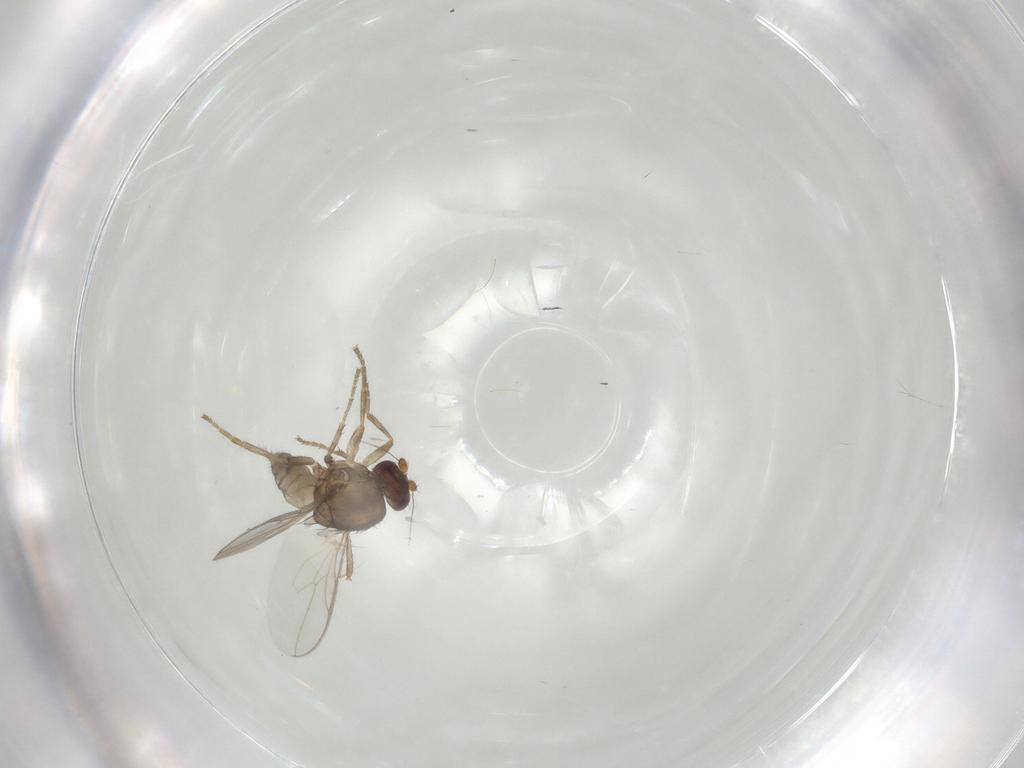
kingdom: Animalia
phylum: Arthropoda
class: Insecta
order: Diptera
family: Sphaeroceridae
